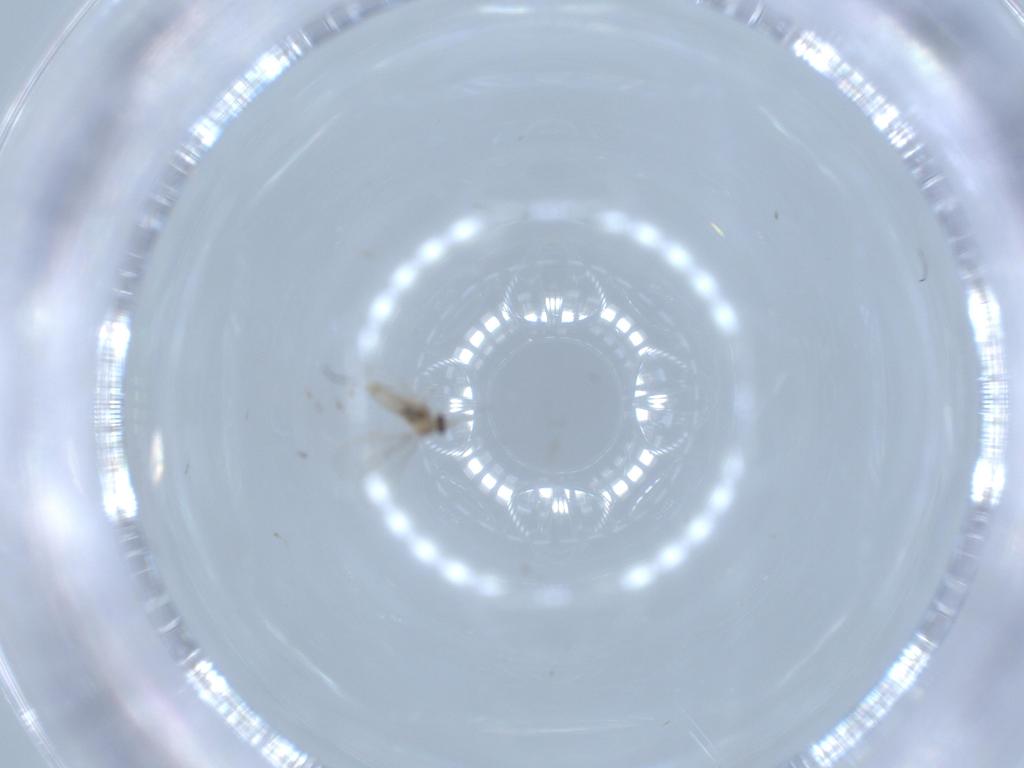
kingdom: Animalia
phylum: Arthropoda
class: Insecta
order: Diptera
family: Cecidomyiidae
